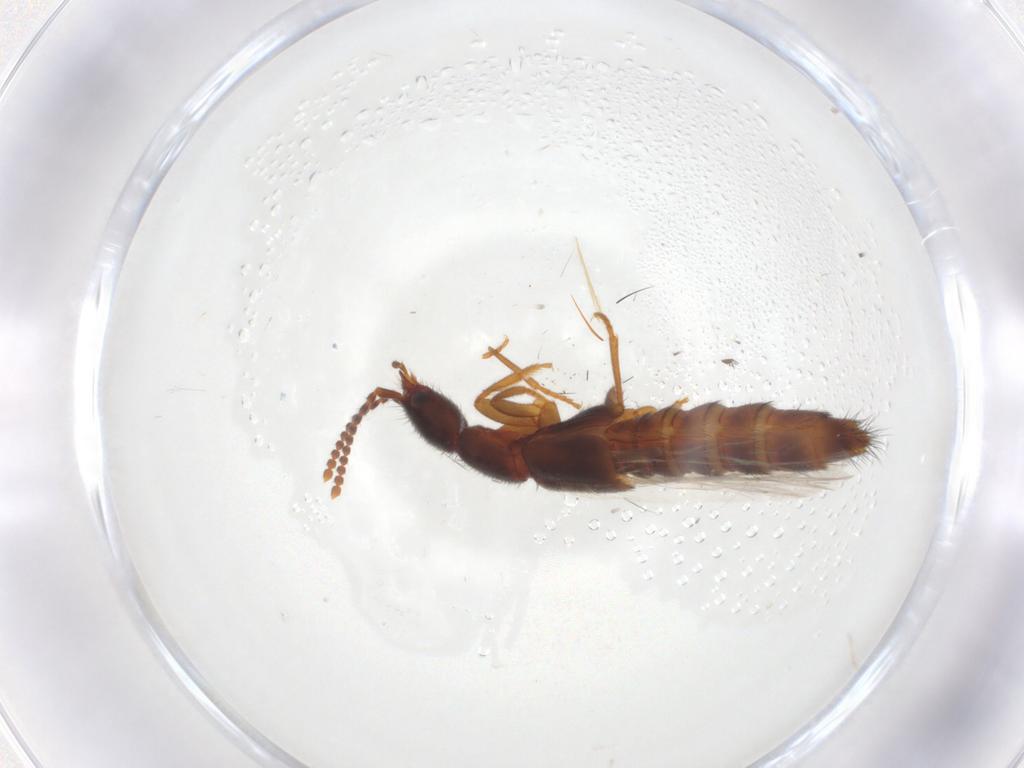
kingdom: Animalia
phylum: Arthropoda
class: Insecta
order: Coleoptera
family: Staphylinidae
